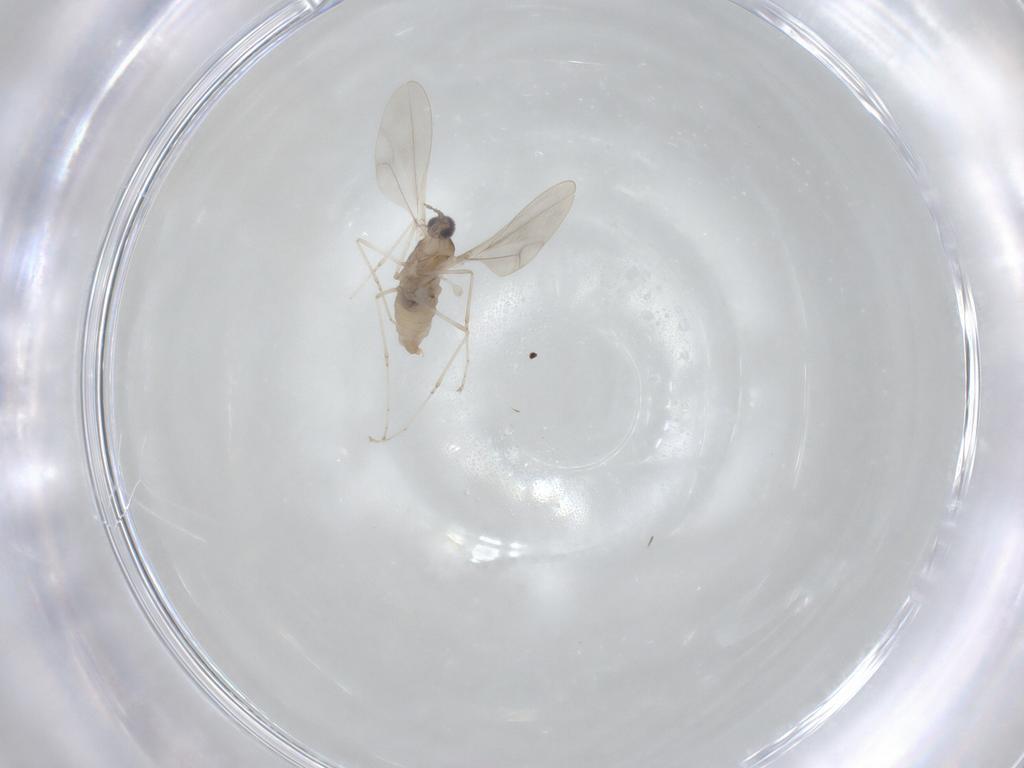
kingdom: Animalia
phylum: Arthropoda
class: Insecta
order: Diptera
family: Cecidomyiidae
